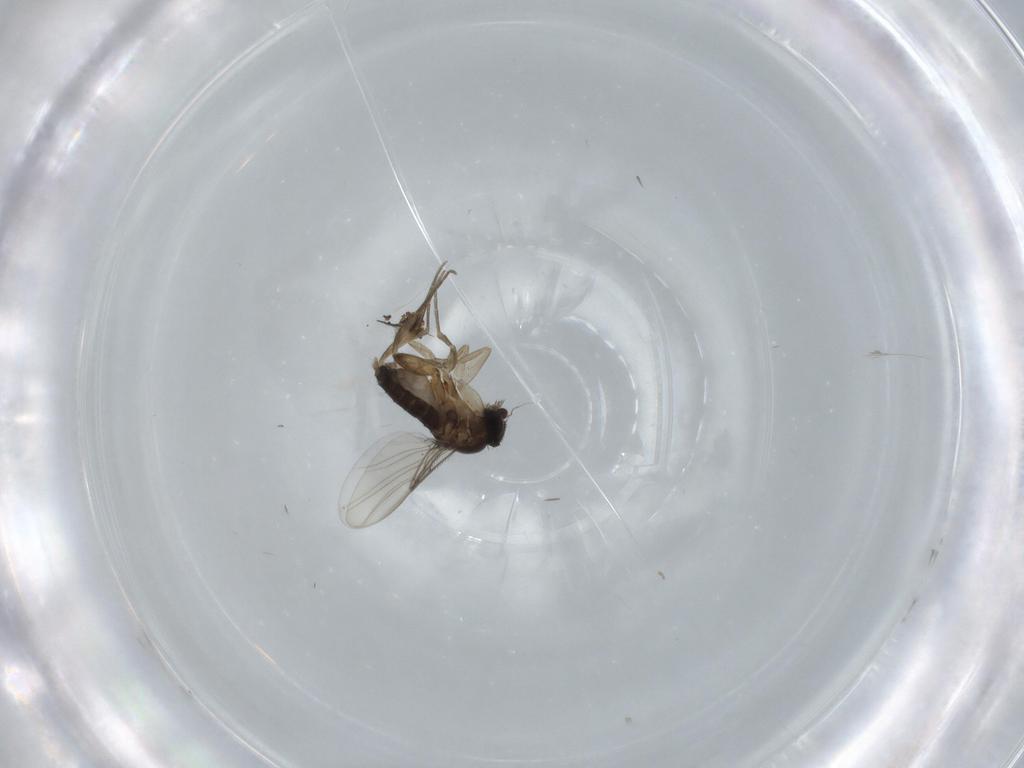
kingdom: Animalia
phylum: Arthropoda
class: Insecta
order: Diptera
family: Cecidomyiidae
